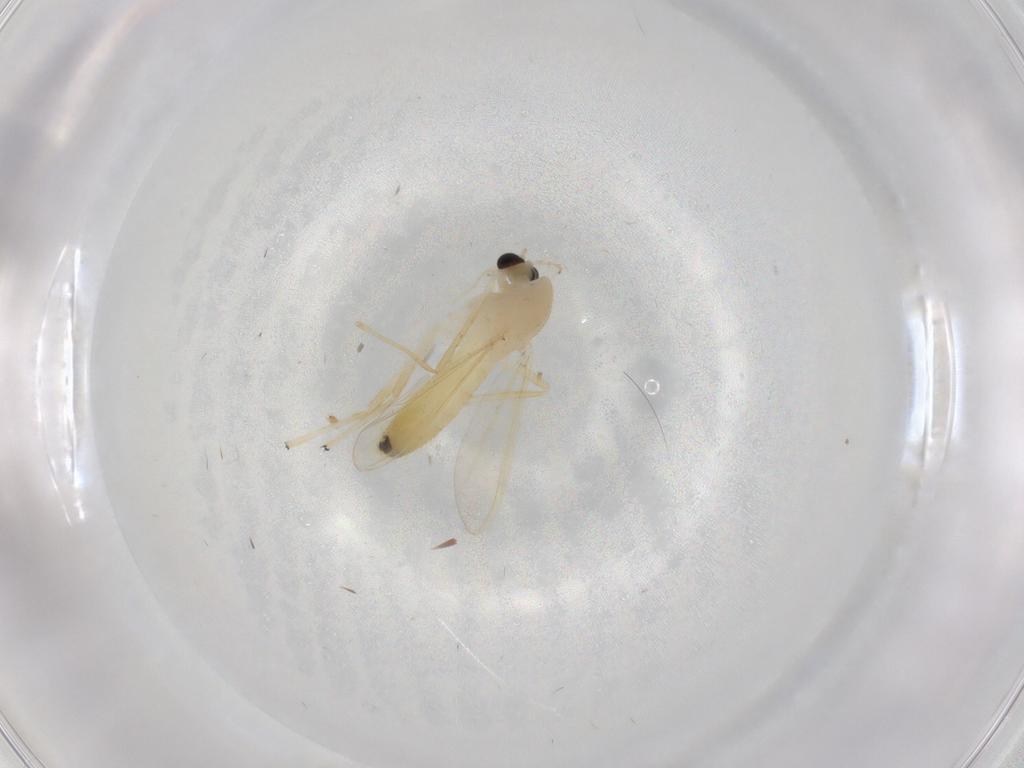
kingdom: Animalia
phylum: Arthropoda
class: Insecta
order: Diptera
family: Chironomidae
